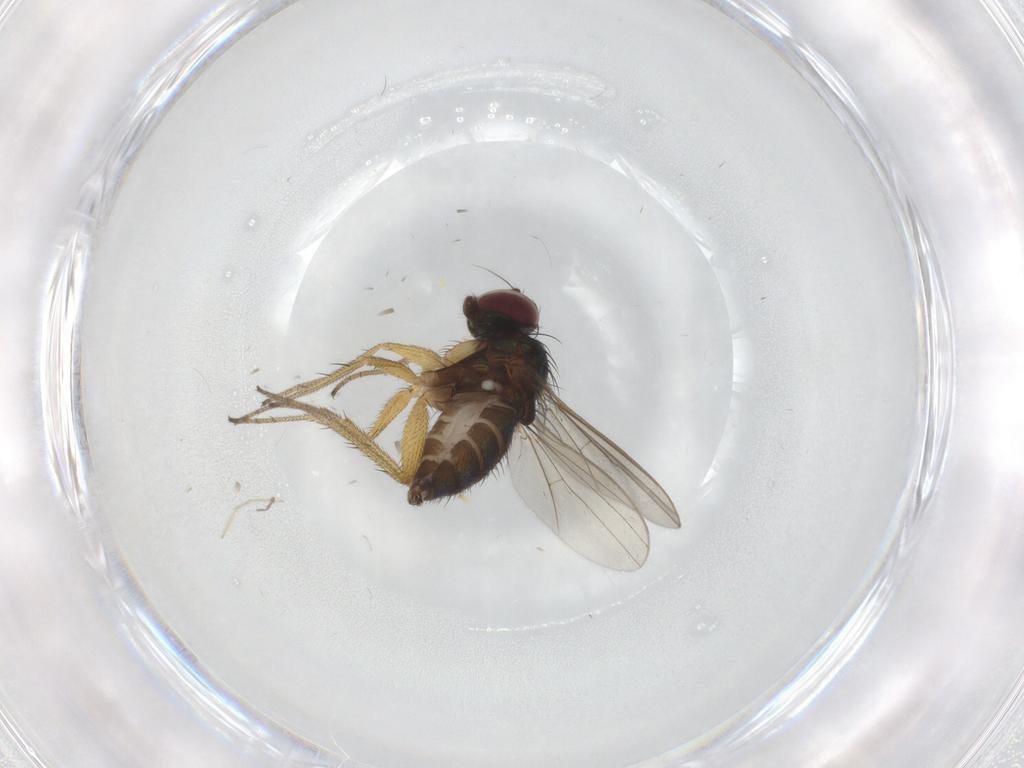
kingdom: Animalia
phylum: Arthropoda
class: Insecta
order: Diptera
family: Dolichopodidae
